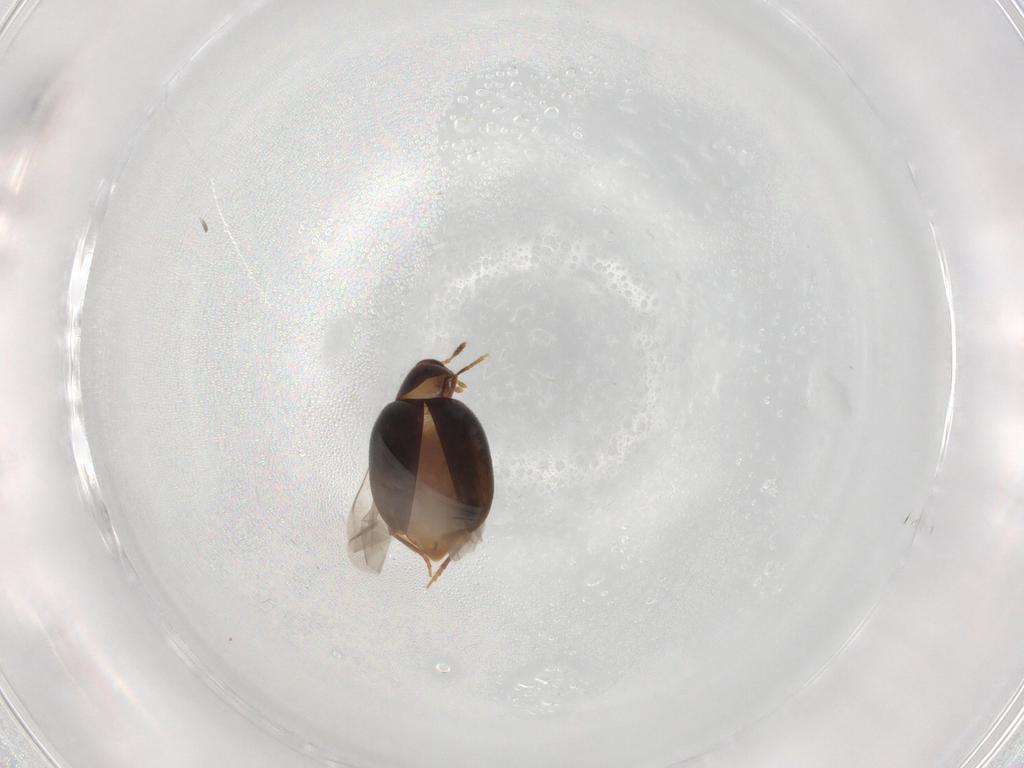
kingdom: Animalia
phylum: Arthropoda
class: Insecta
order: Coleoptera
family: Melandryidae
